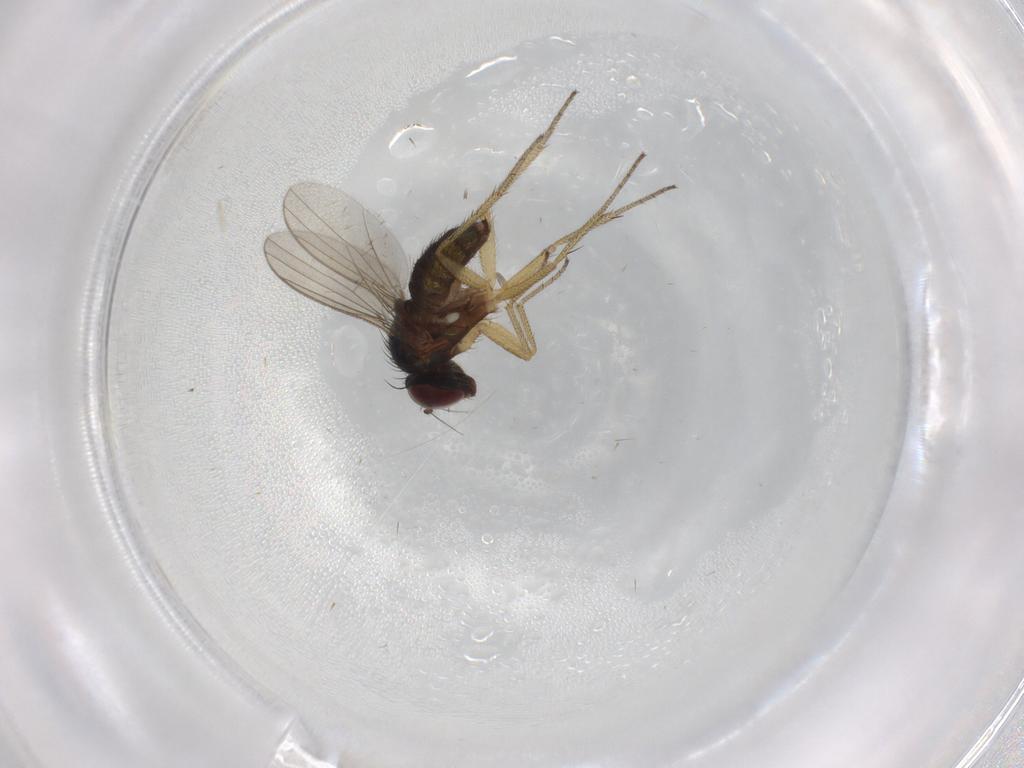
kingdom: Animalia
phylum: Arthropoda
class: Insecta
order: Diptera
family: Dolichopodidae
